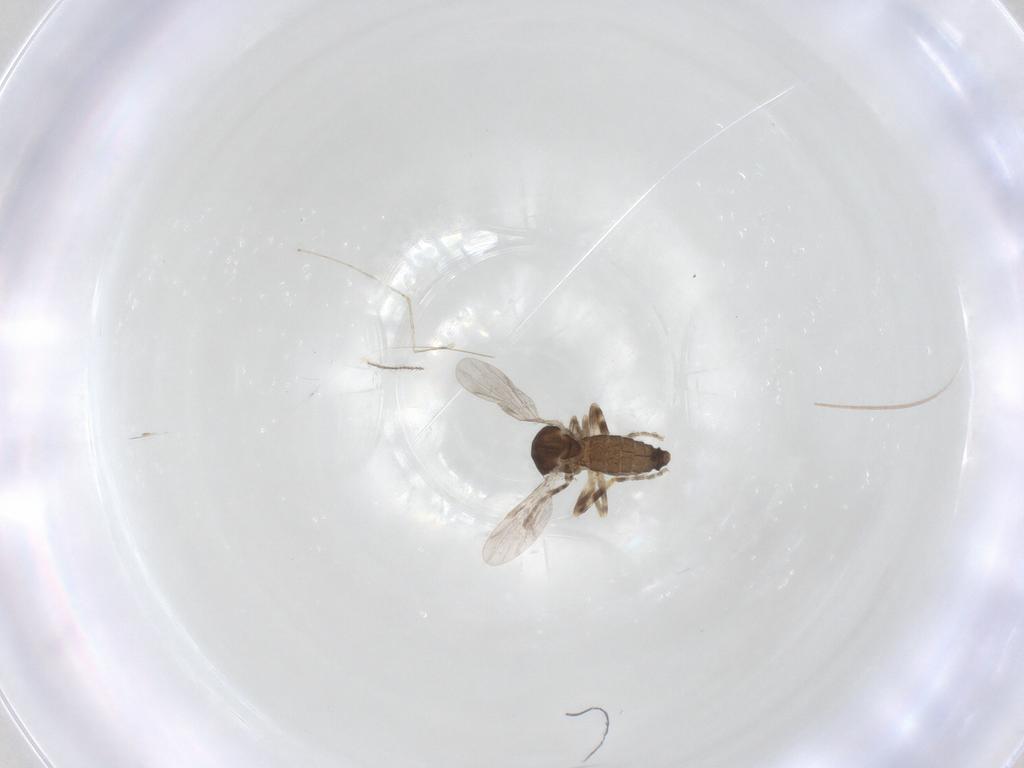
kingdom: Animalia
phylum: Arthropoda
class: Insecta
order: Diptera
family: Ceratopogonidae
